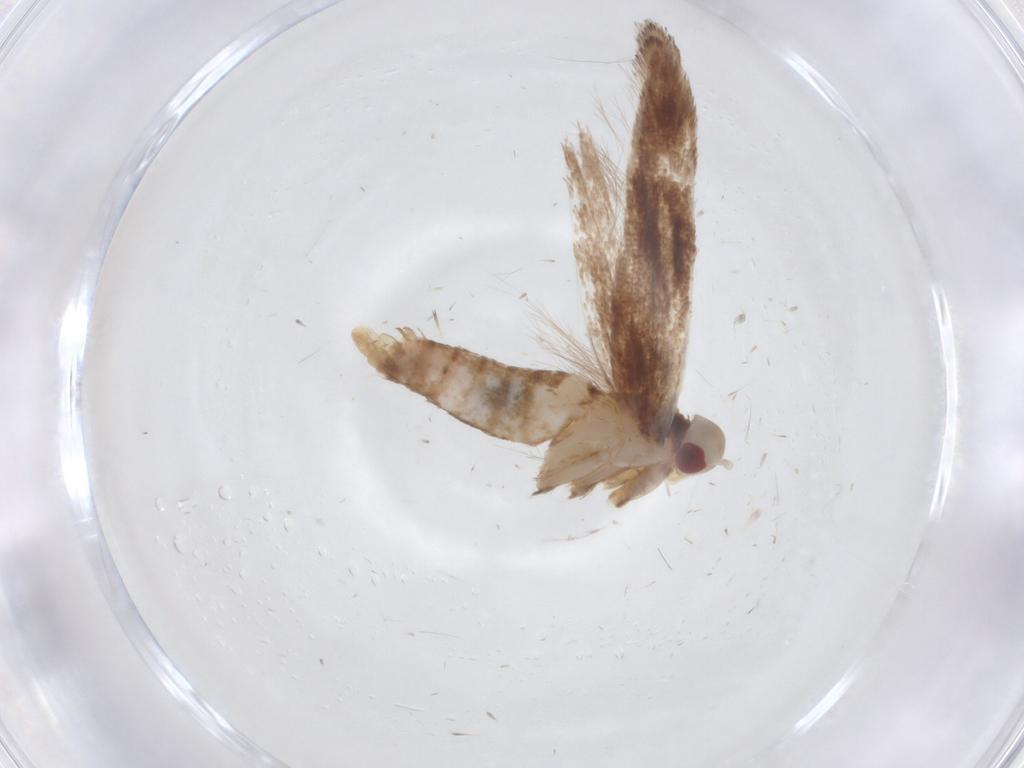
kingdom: Animalia
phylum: Arthropoda
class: Insecta
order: Lepidoptera
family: Cosmopterigidae
